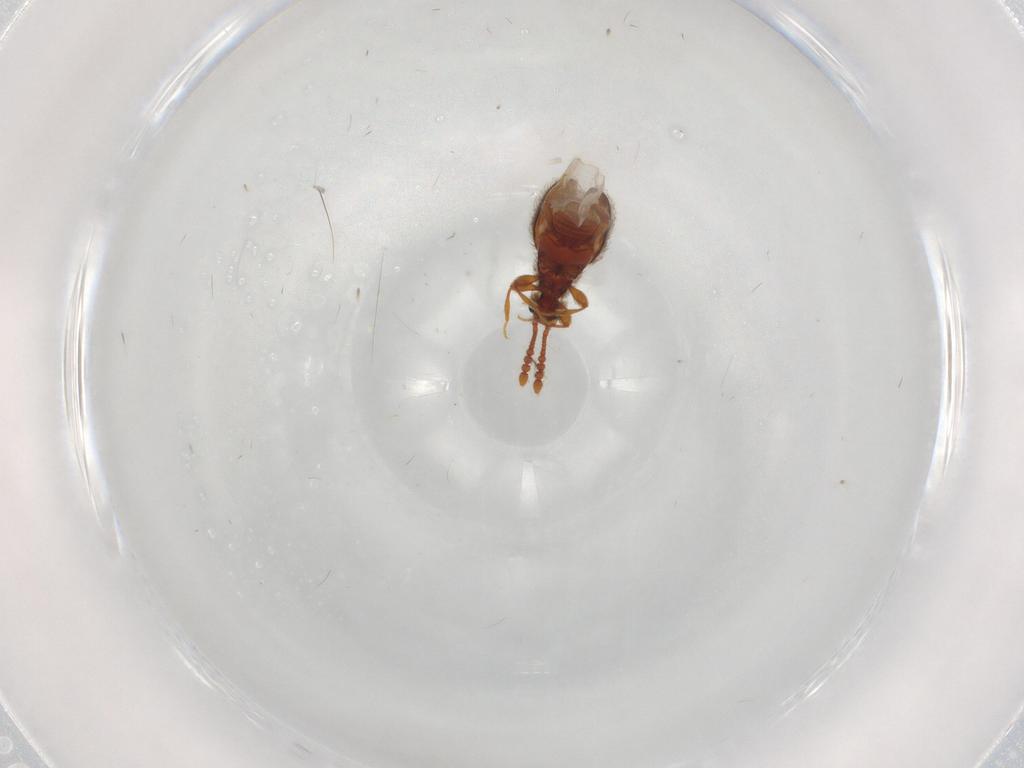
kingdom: Animalia
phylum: Arthropoda
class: Insecta
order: Coleoptera
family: Staphylinidae
